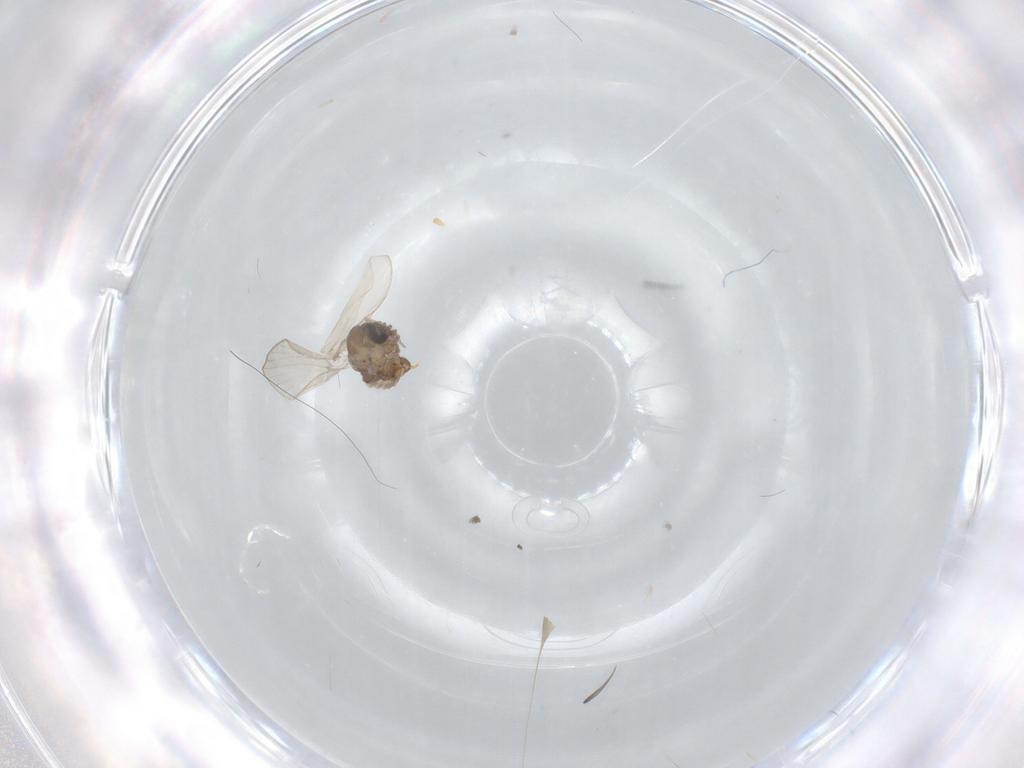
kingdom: Animalia
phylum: Arthropoda
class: Insecta
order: Diptera
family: Psychodidae
